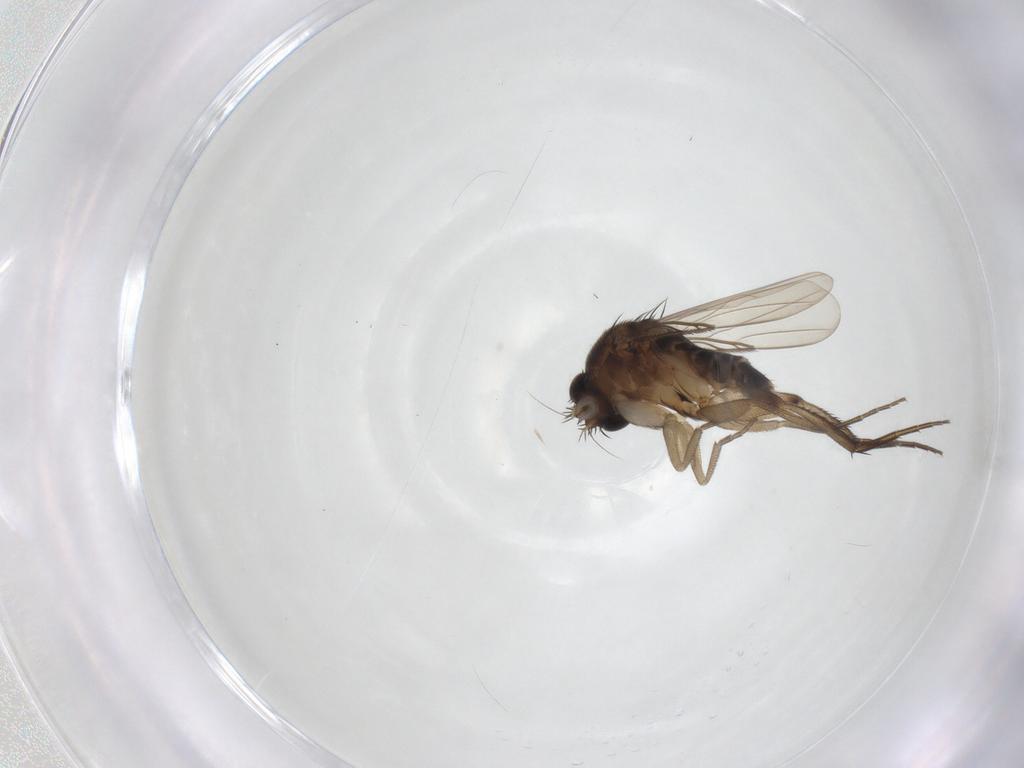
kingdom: Animalia
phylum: Arthropoda
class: Insecta
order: Diptera
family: Phoridae
